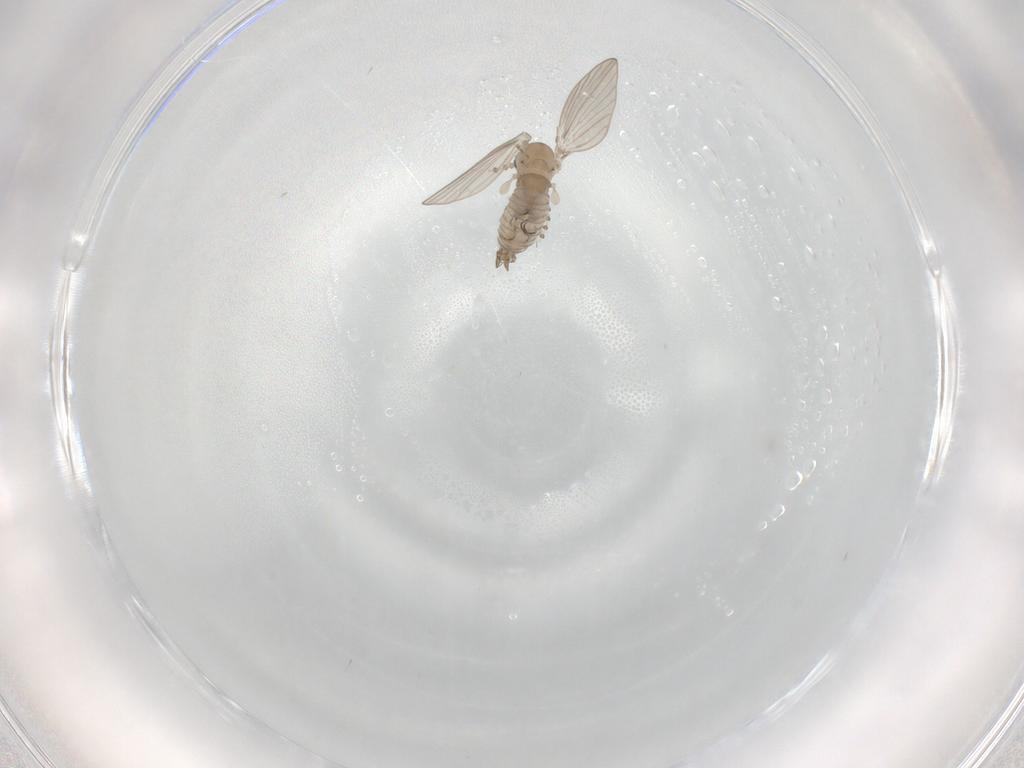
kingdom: Animalia
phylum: Arthropoda
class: Insecta
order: Diptera
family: Psychodidae
